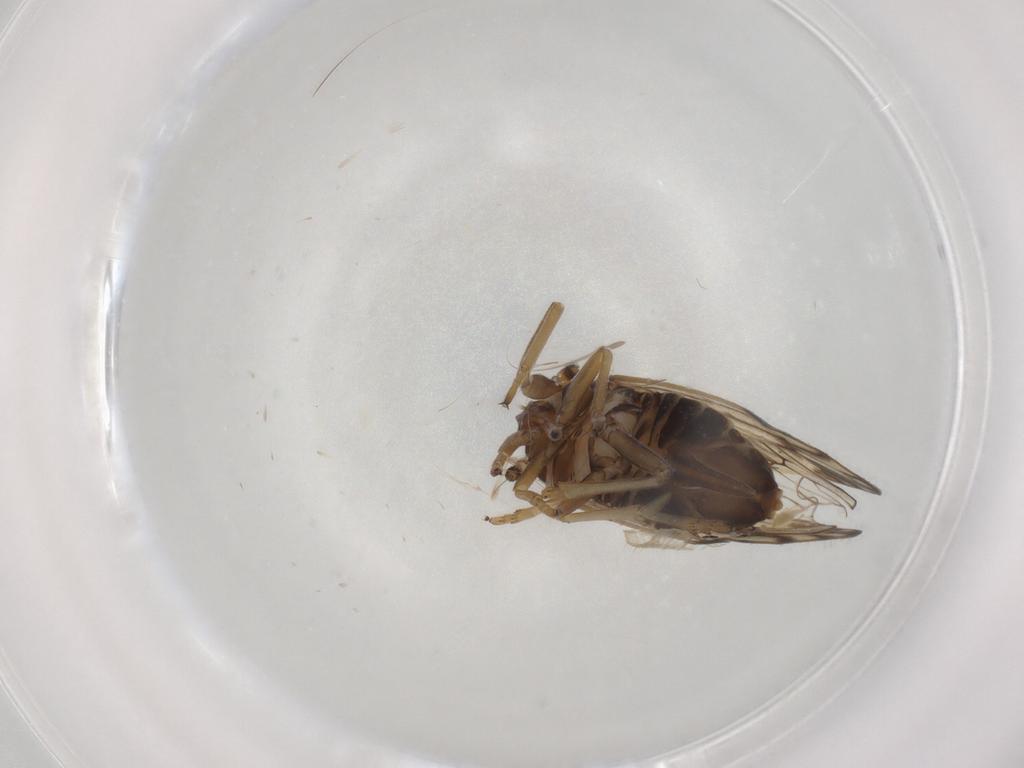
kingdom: Animalia
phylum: Arthropoda
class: Insecta
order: Hemiptera
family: Delphacidae
